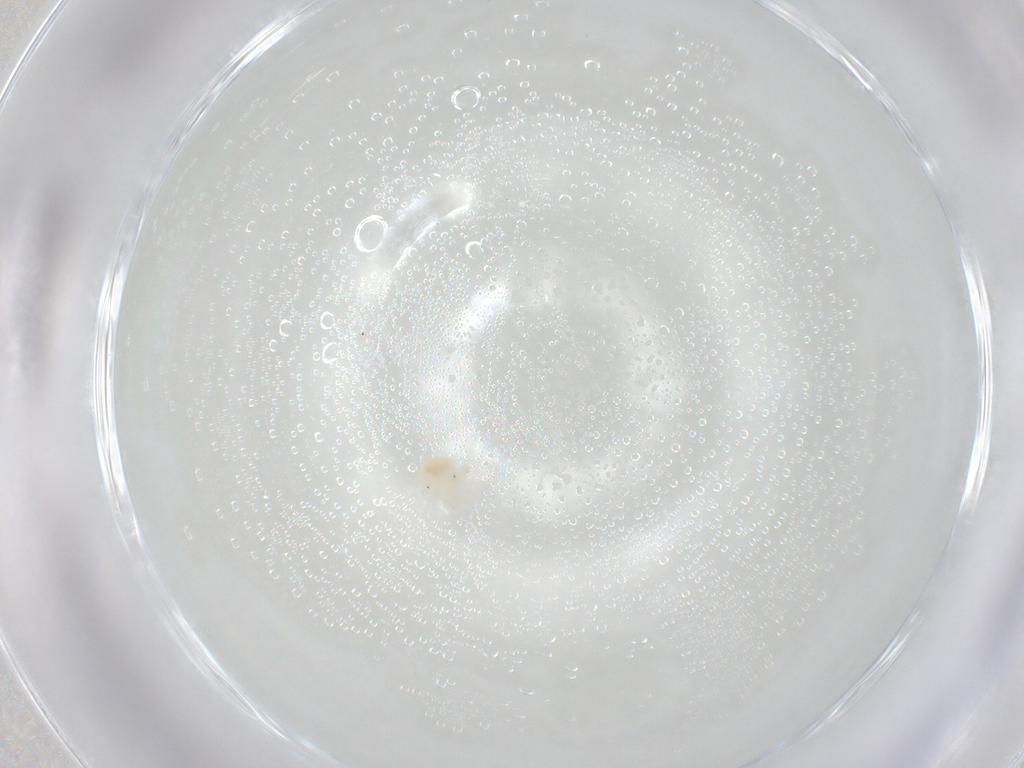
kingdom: Animalia
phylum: Arthropoda
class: Arachnida
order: Trombidiformes
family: Anystidae
